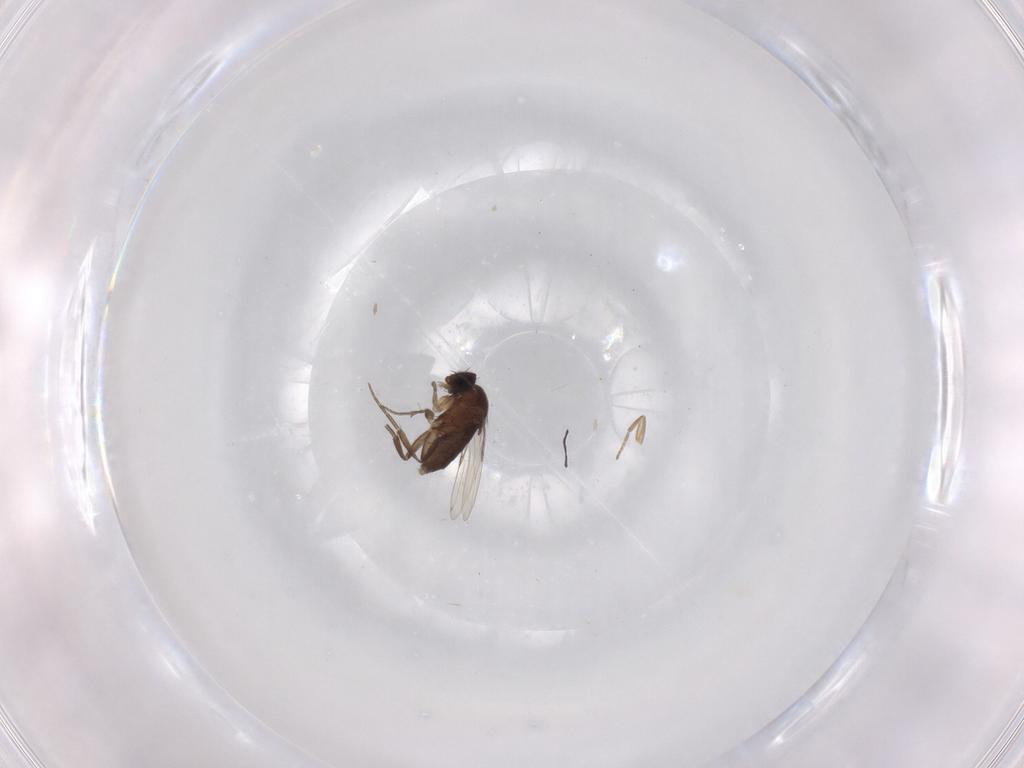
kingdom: Animalia
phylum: Arthropoda
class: Insecta
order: Diptera
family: Phoridae
